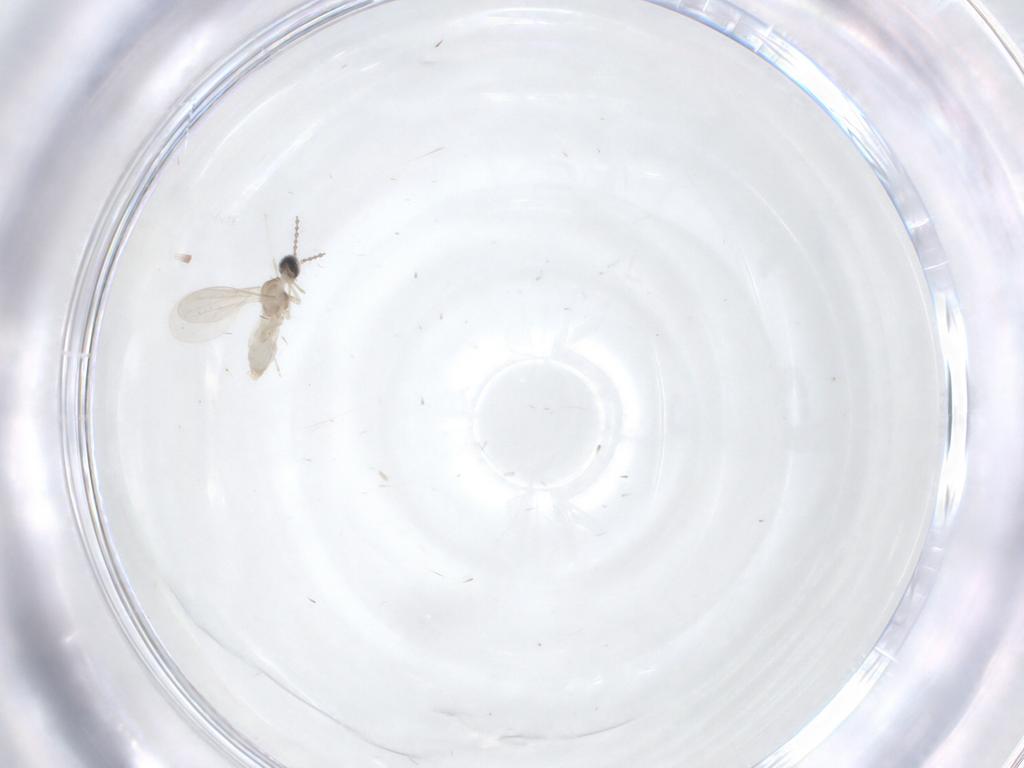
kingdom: Animalia
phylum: Arthropoda
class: Insecta
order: Diptera
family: Cecidomyiidae
